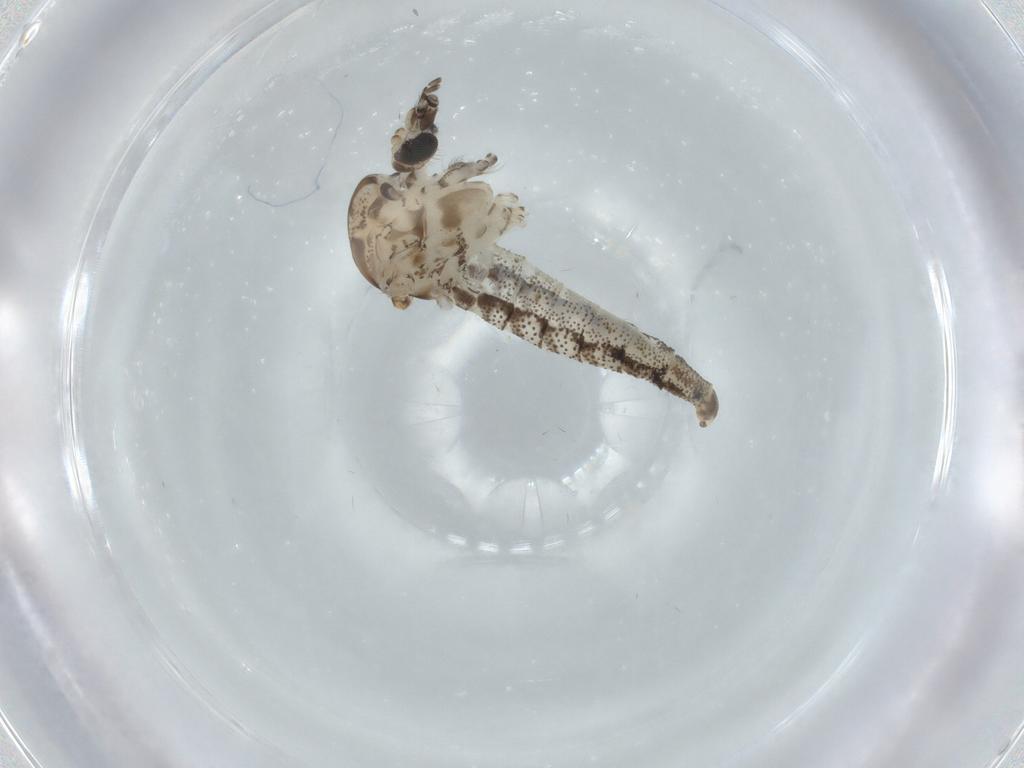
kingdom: Animalia
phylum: Arthropoda
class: Insecta
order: Diptera
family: Psychodidae
